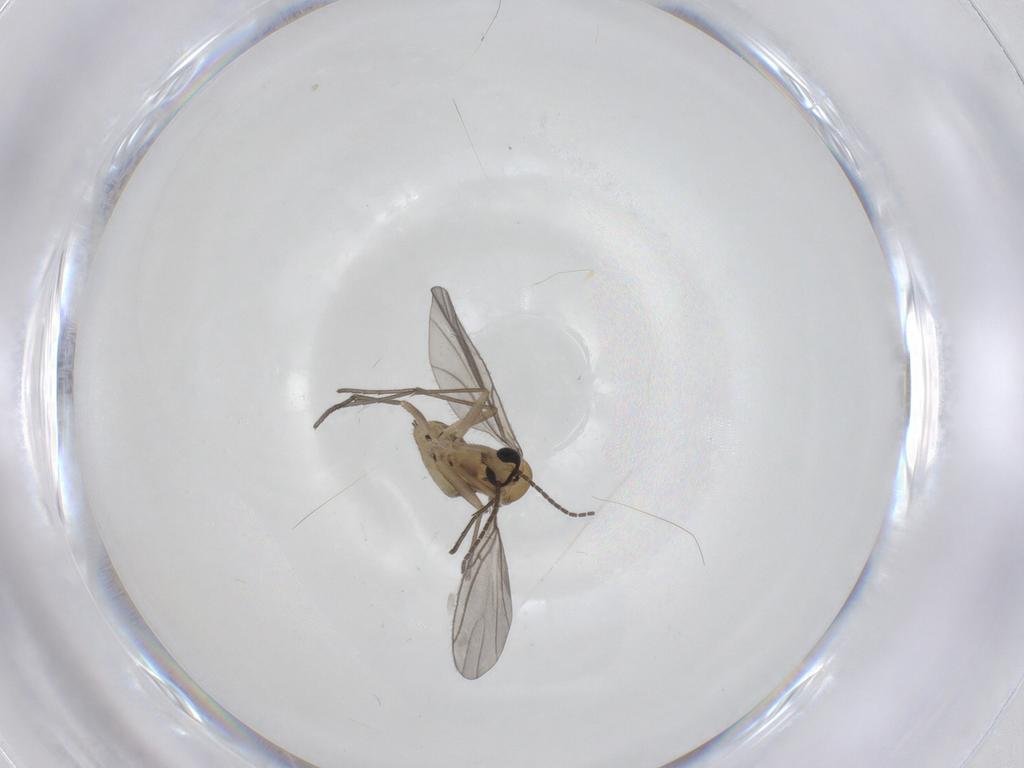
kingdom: Animalia
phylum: Arthropoda
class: Insecta
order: Diptera
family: Sciaridae
